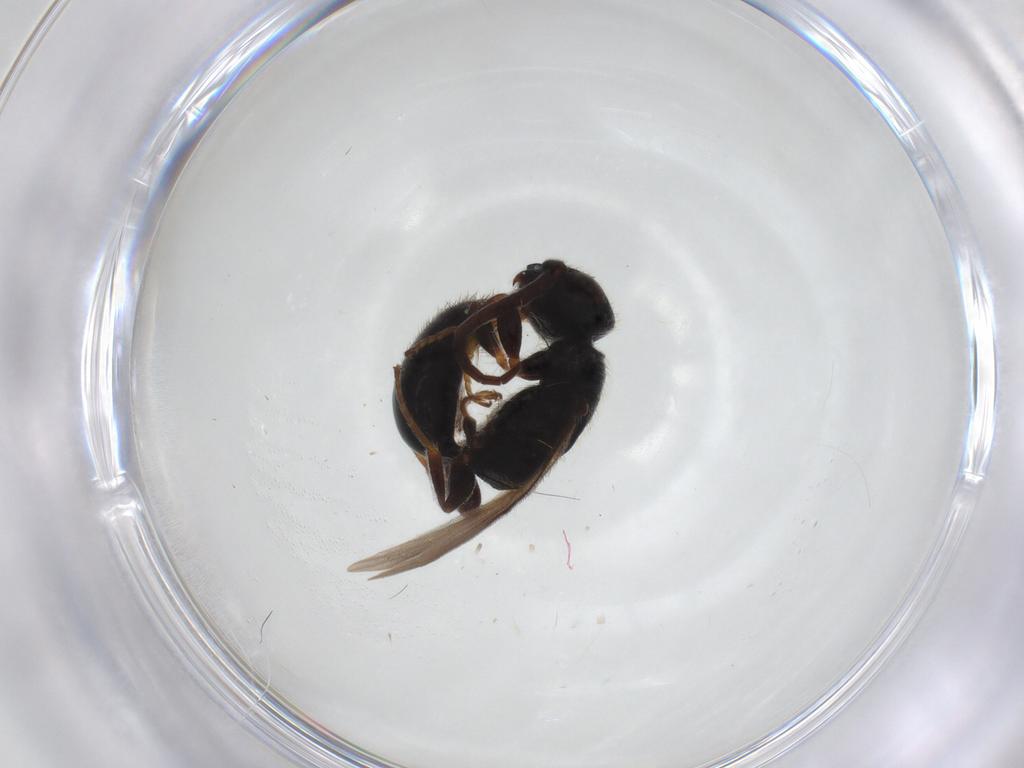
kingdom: Animalia
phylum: Arthropoda
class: Insecta
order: Hymenoptera
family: Bethylidae
